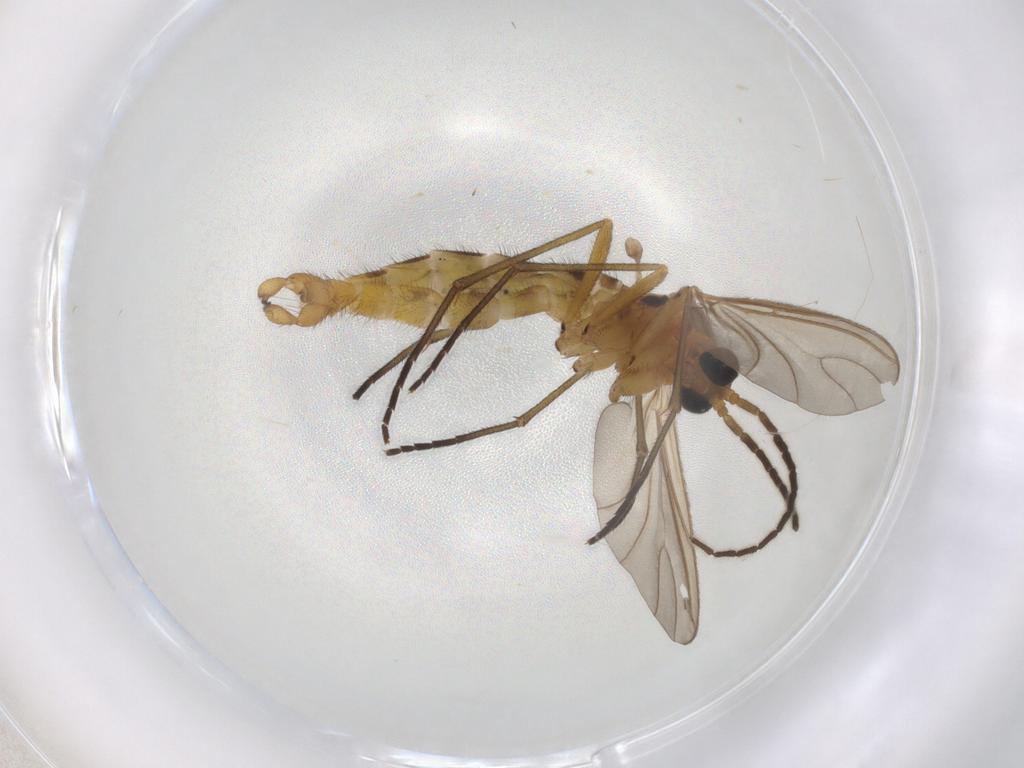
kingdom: Animalia
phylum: Arthropoda
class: Insecta
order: Diptera
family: Sciaridae
